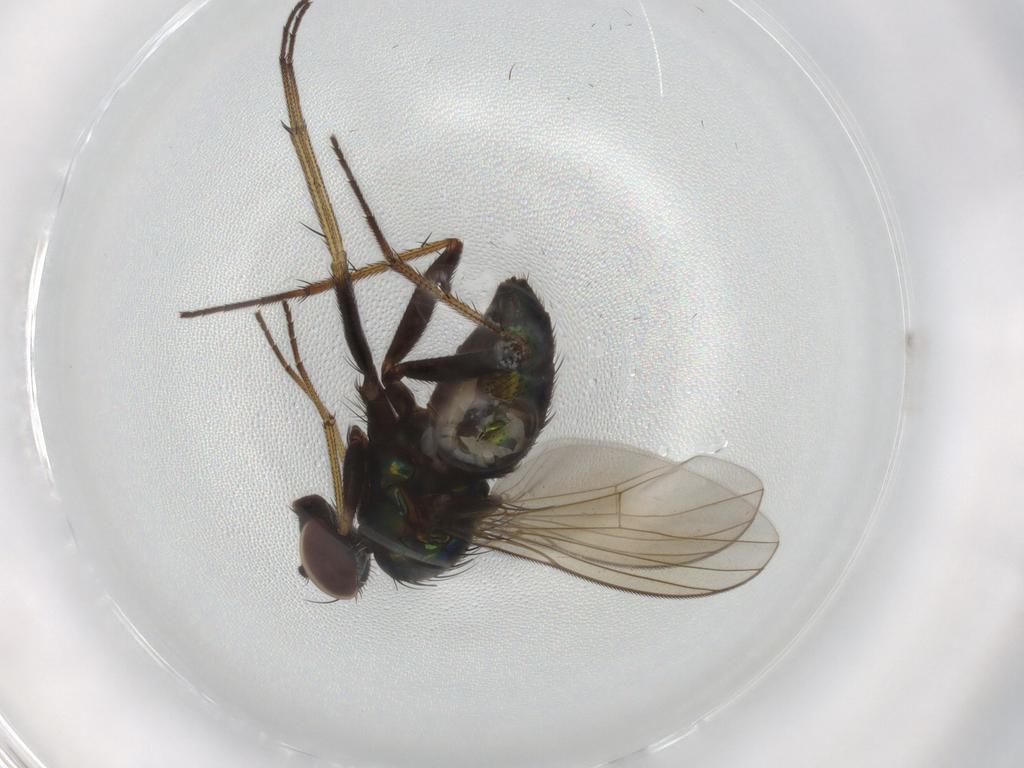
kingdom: Animalia
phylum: Arthropoda
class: Insecta
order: Diptera
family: Dolichopodidae
